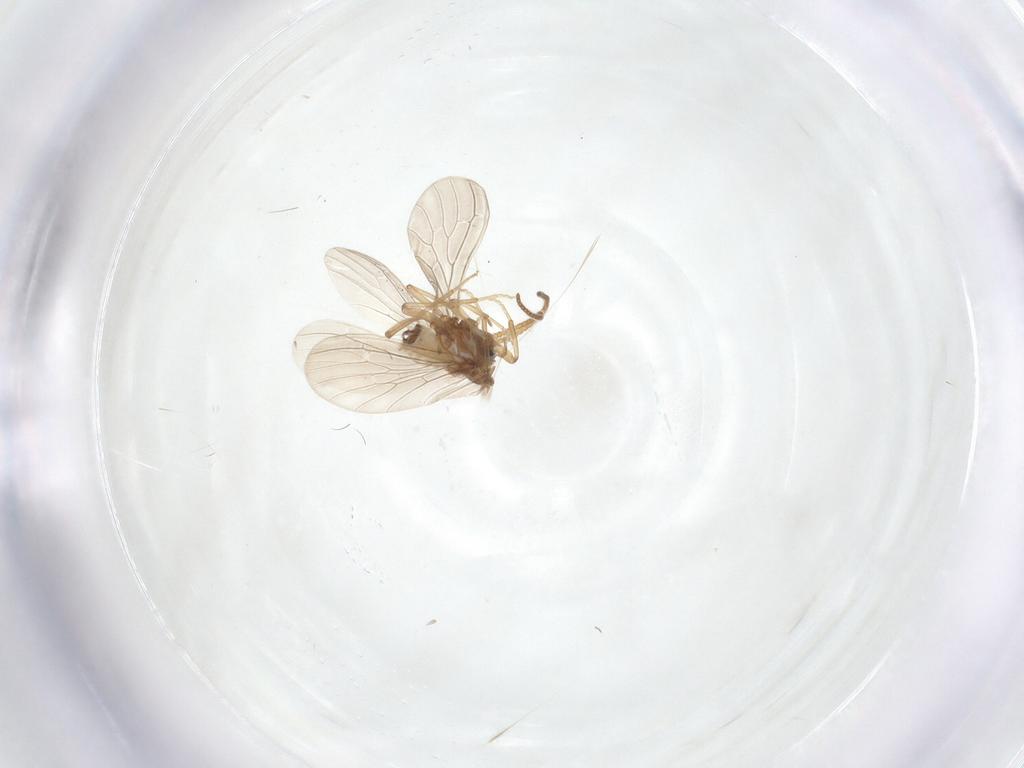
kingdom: Animalia
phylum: Arthropoda
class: Insecta
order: Neuroptera
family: Coniopterygidae
